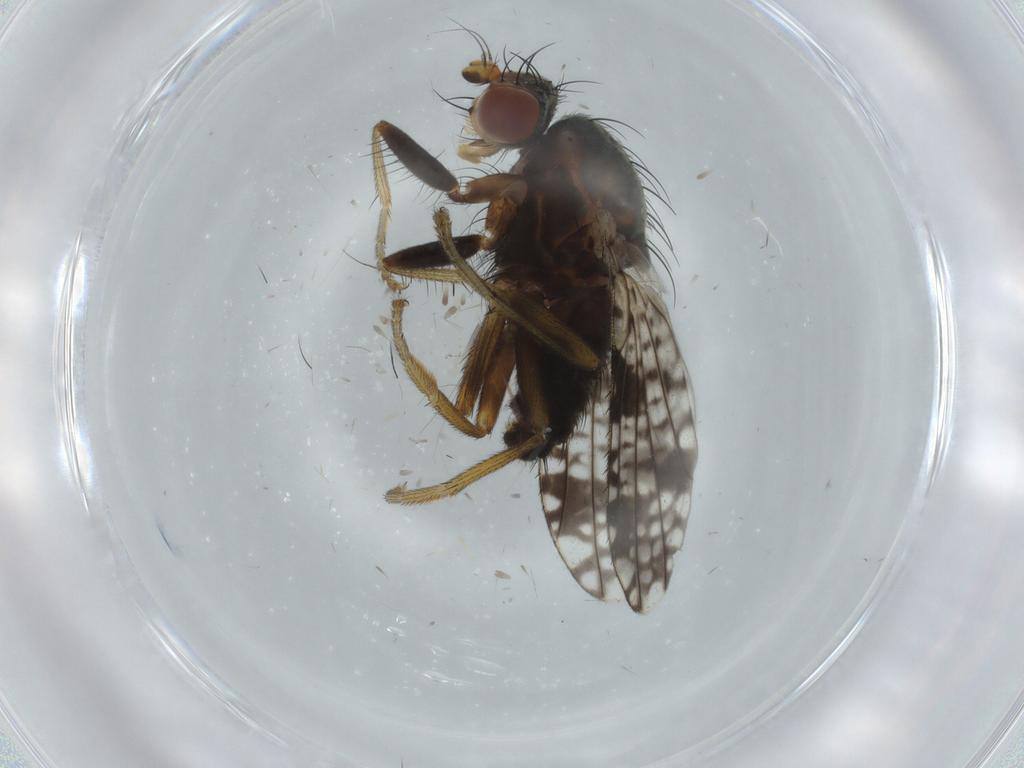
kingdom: Animalia
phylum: Arthropoda
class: Insecta
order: Diptera
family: Tephritidae
